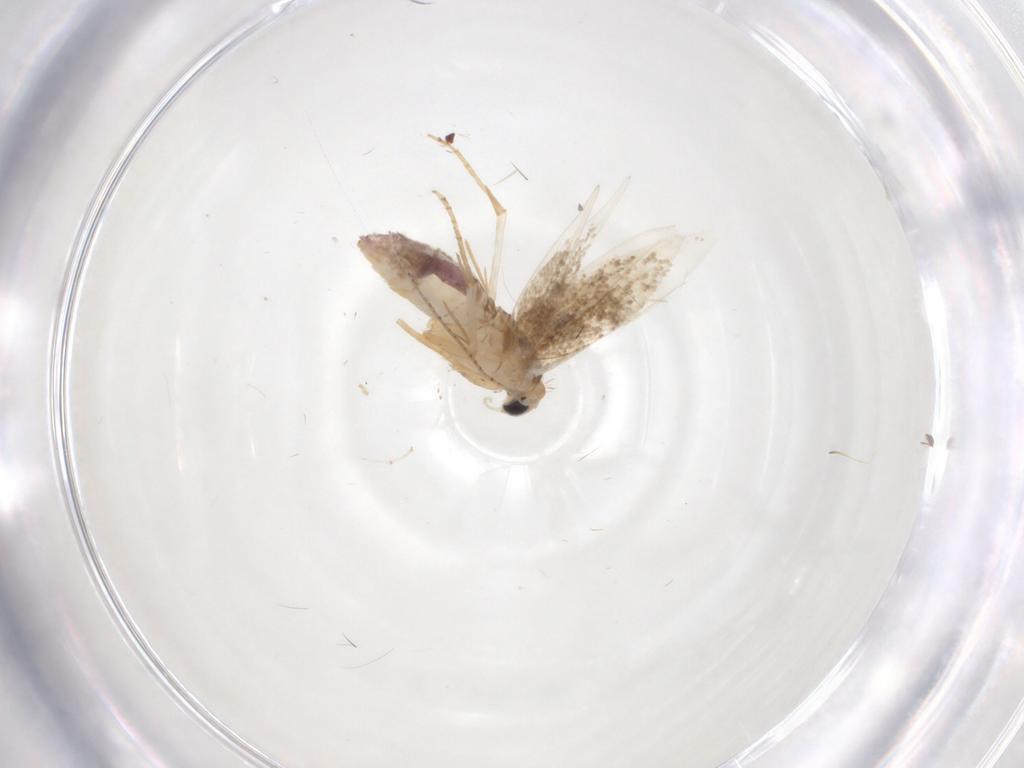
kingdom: Animalia
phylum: Arthropoda
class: Insecta
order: Lepidoptera
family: Bucculatricidae
